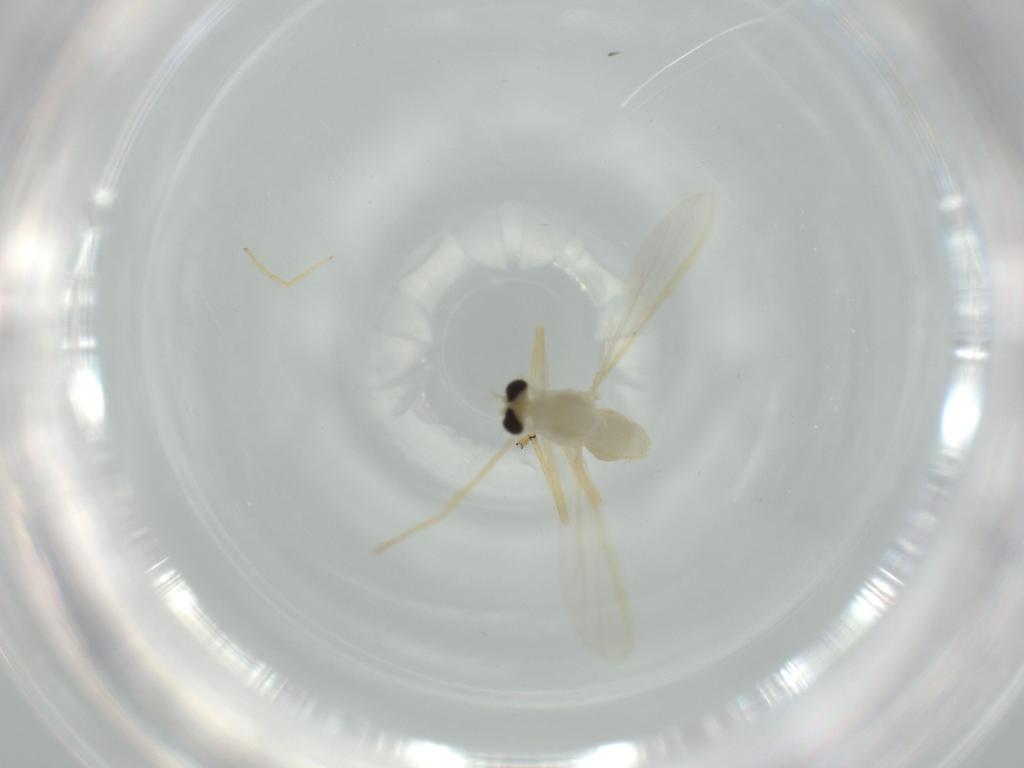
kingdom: Animalia
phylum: Arthropoda
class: Insecta
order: Diptera
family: Chironomidae
